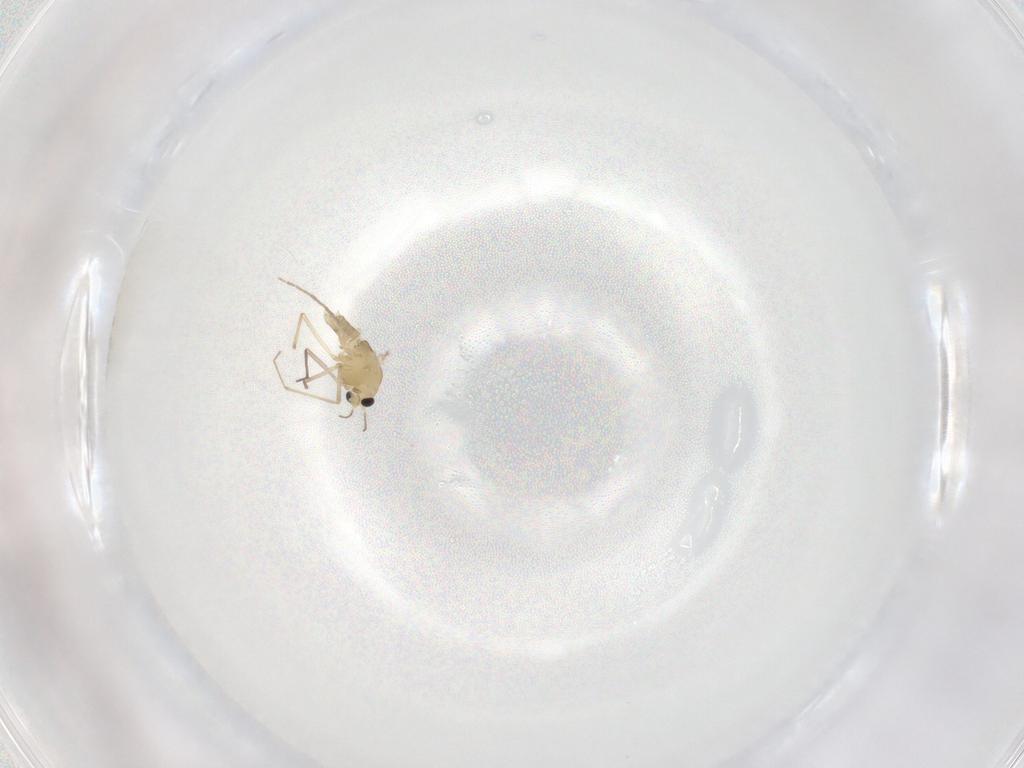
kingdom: Animalia
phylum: Arthropoda
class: Insecta
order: Diptera
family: Chironomidae
